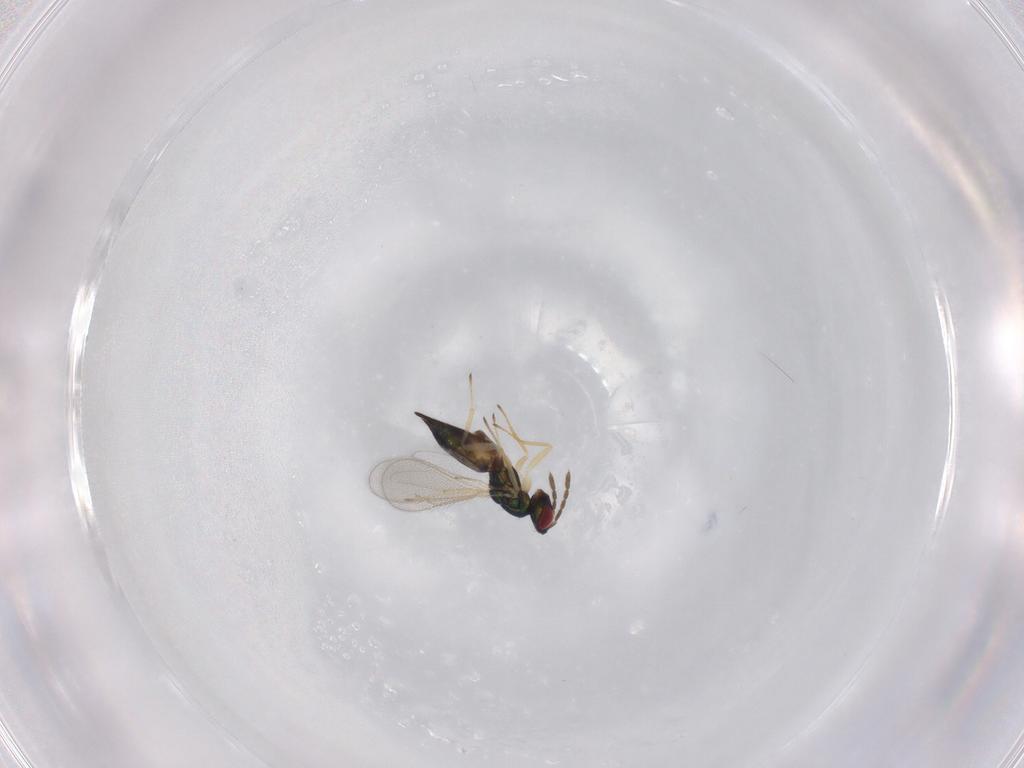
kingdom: Animalia
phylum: Arthropoda
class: Insecta
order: Hymenoptera
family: Eulophidae
